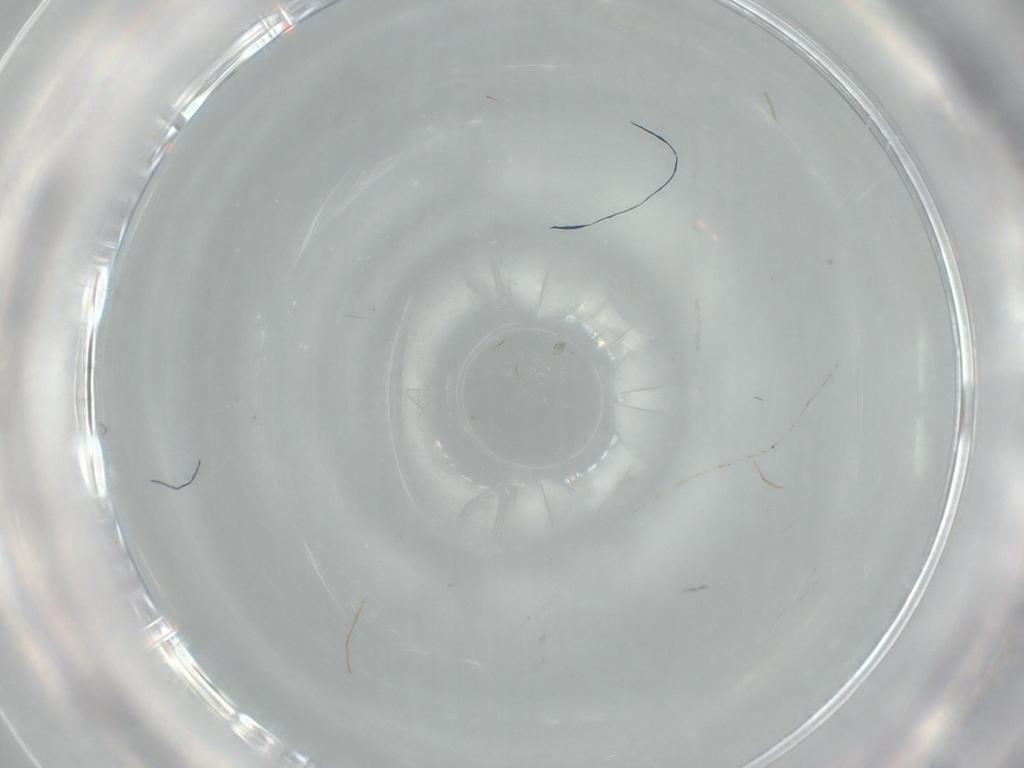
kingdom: Animalia
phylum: Arthropoda
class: Insecta
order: Diptera
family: Cecidomyiidae
